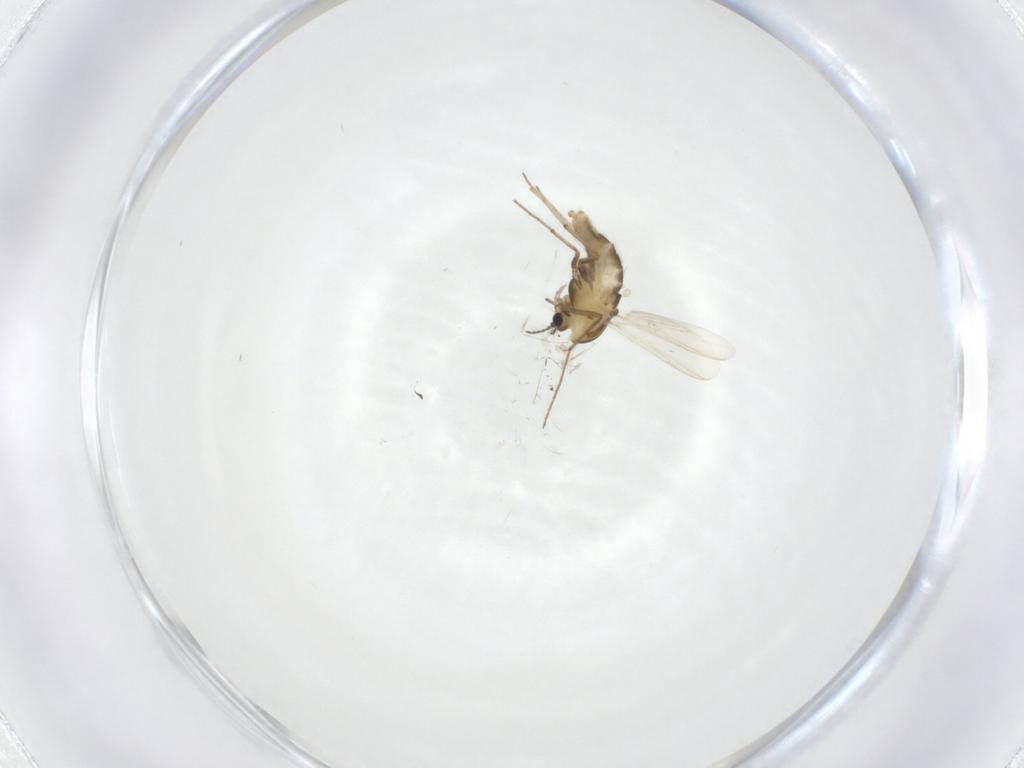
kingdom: Animalia
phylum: Arthropoda
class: Insecta
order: Diptera
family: Chironomidae
